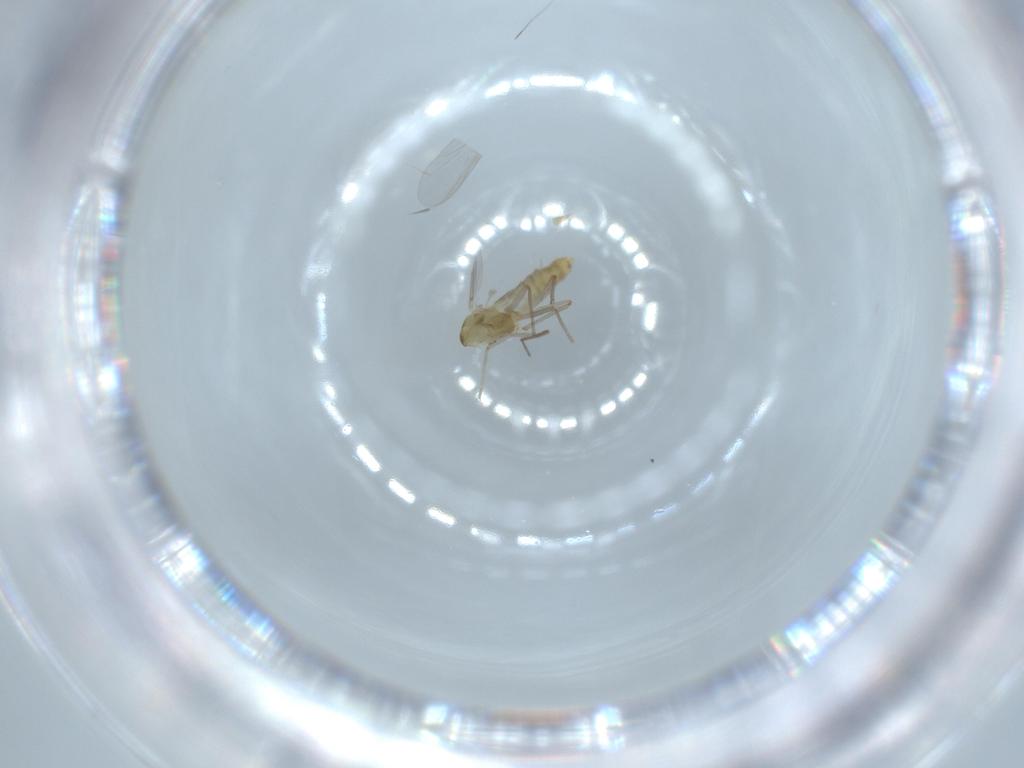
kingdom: Animalia
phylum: Arthropoda
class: Insecta
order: Diptera
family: Chironomidae
